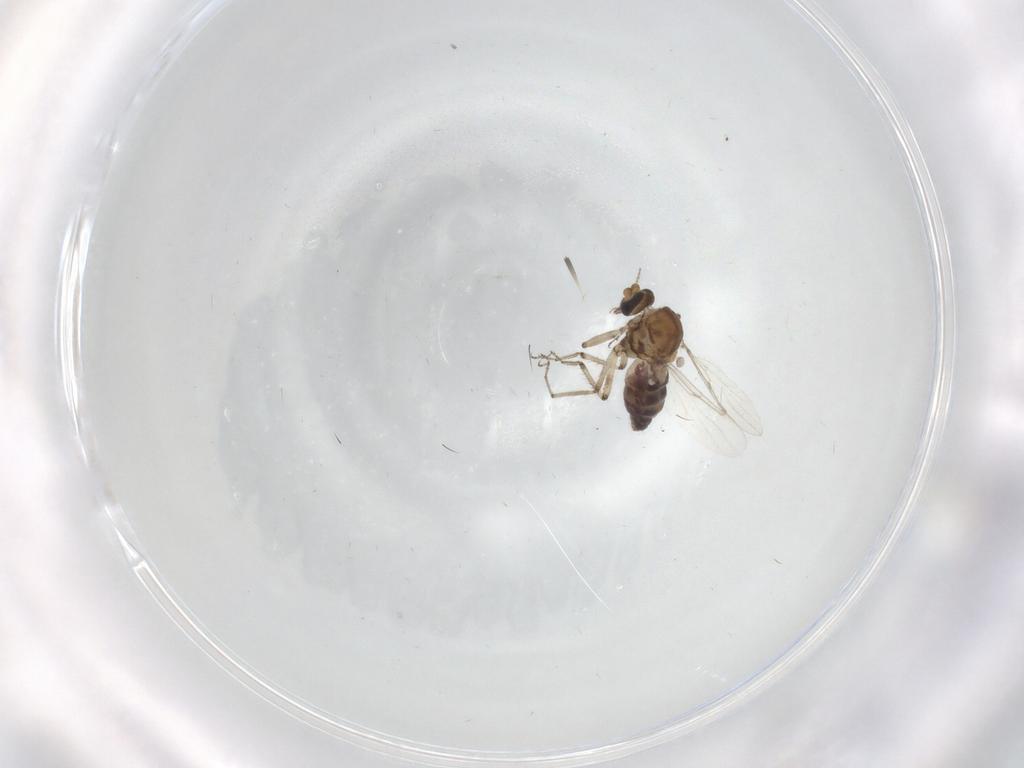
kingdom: Animalia
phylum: Arthropoda
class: Insecta
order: Diptera
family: Ceratopogonidae
